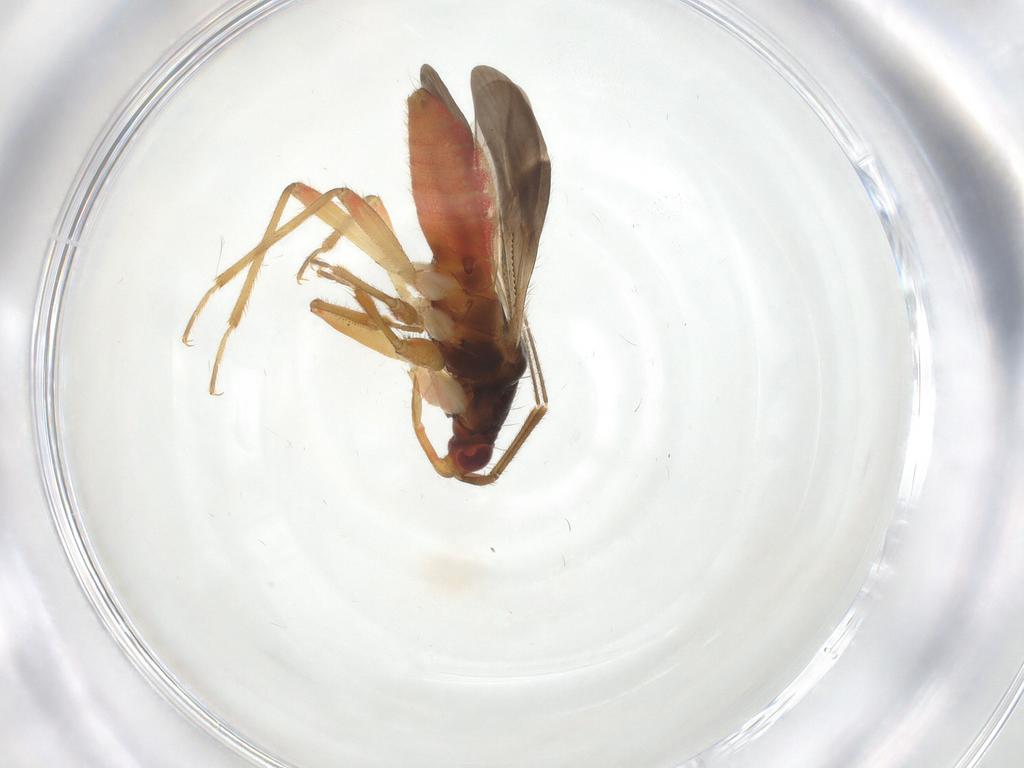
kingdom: Animalia
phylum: Arthropoda
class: Insecta
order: Hemiptera
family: Nabidae
